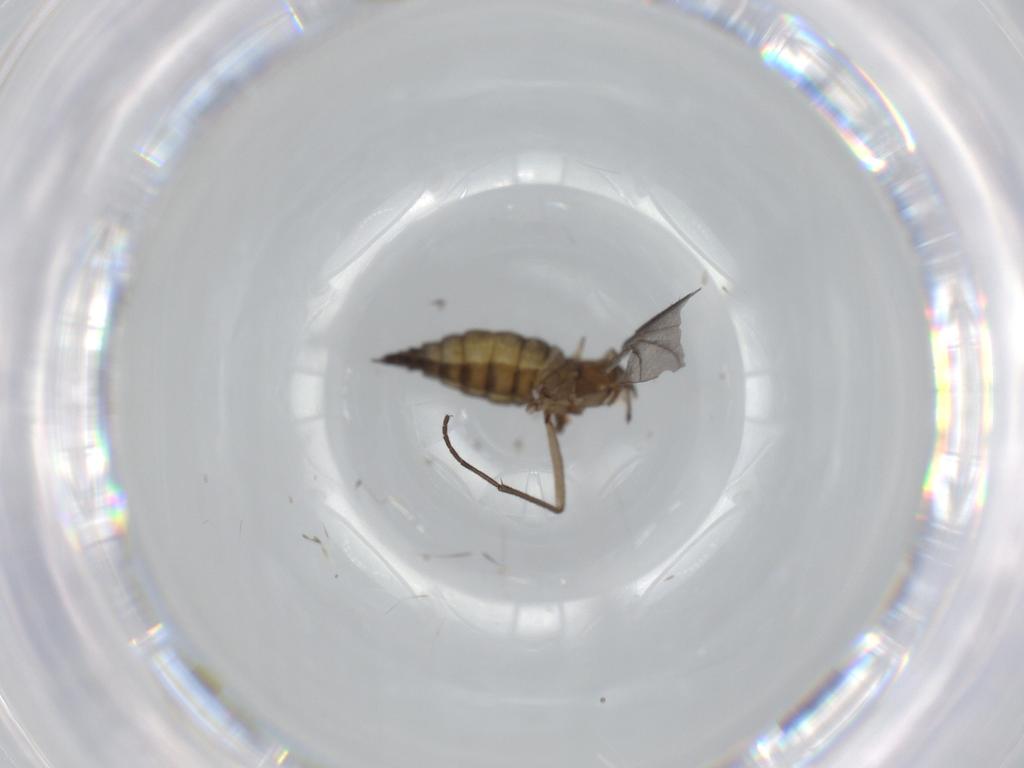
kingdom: Animalia
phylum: Arthropoda
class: Insecta
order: Diptera
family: Sciaridae
